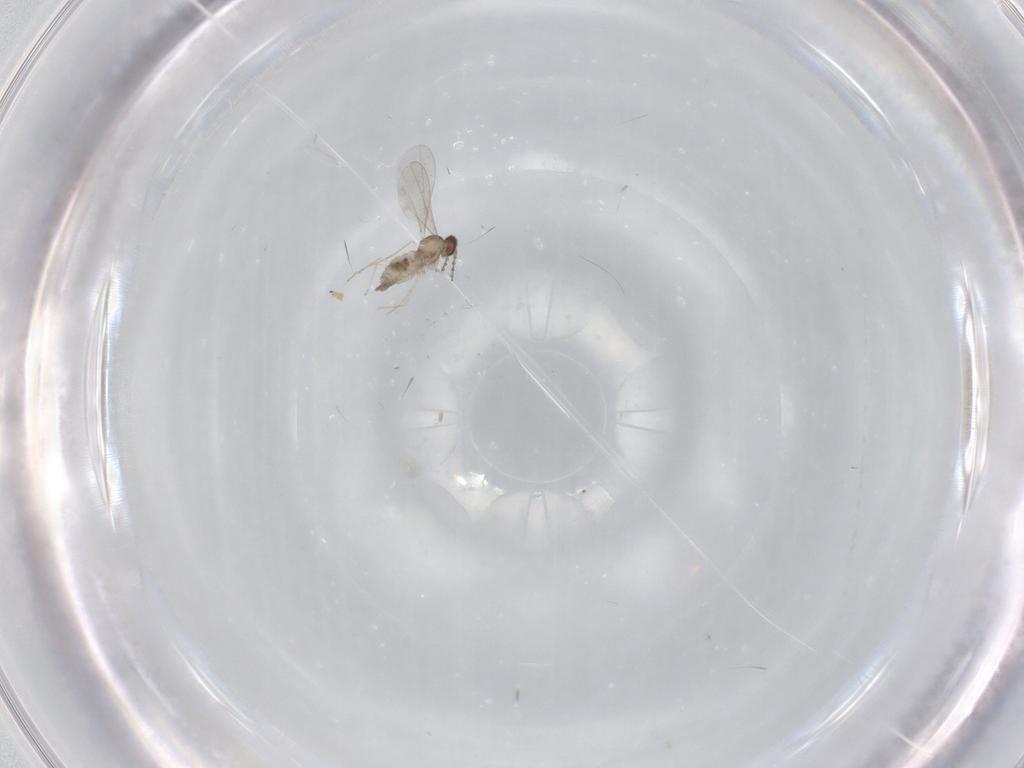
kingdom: Animalia
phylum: Arthropoda
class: Insecta
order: Diptera
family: Cecidomyiidae
